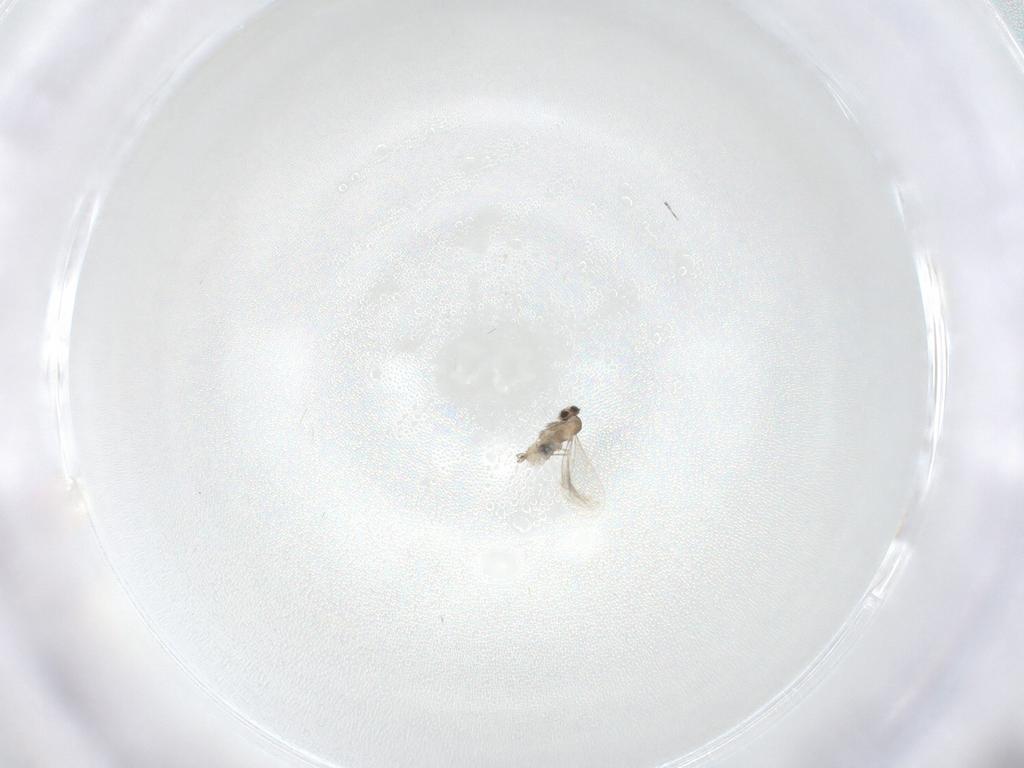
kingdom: Animalia
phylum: Arthropoda
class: Insecta
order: Diptera
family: Cecidomyiidae
